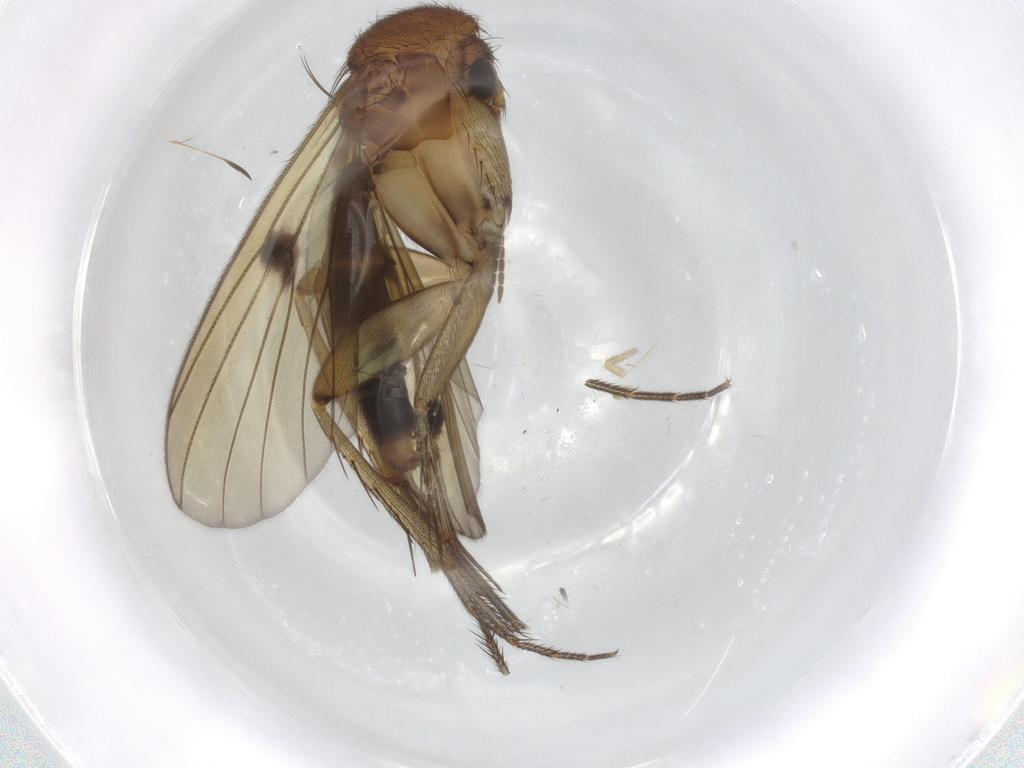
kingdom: Animalia
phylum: Arthropoda
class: Insecta
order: Diptera
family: Mycetophilidae
